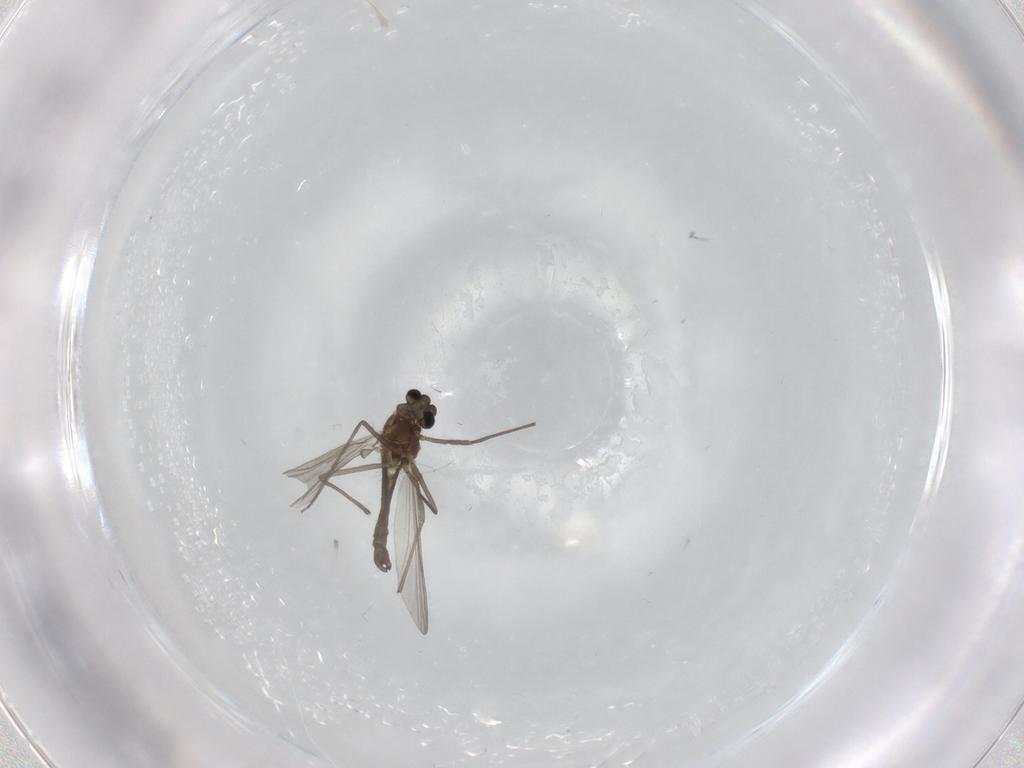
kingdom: Animalia
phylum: Arthropoda
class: Insecta
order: Diptera
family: Chironomidae
